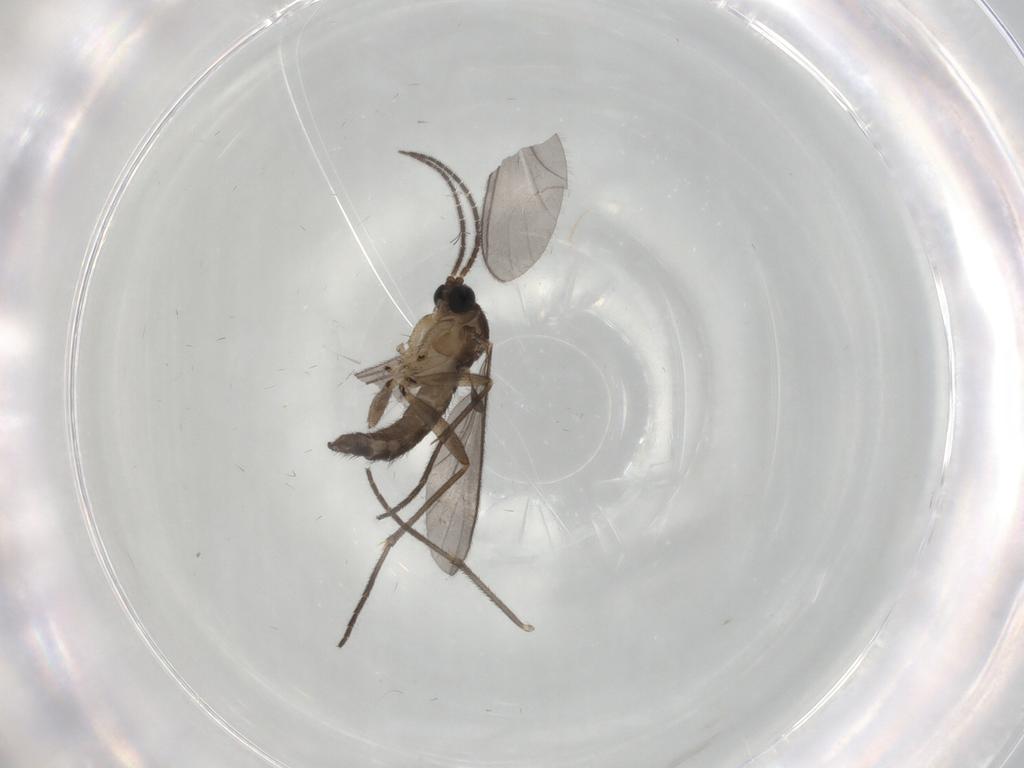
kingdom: Animalia
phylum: Arthropoda
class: Insecta
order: Diptera
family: Cecidomyiidae
